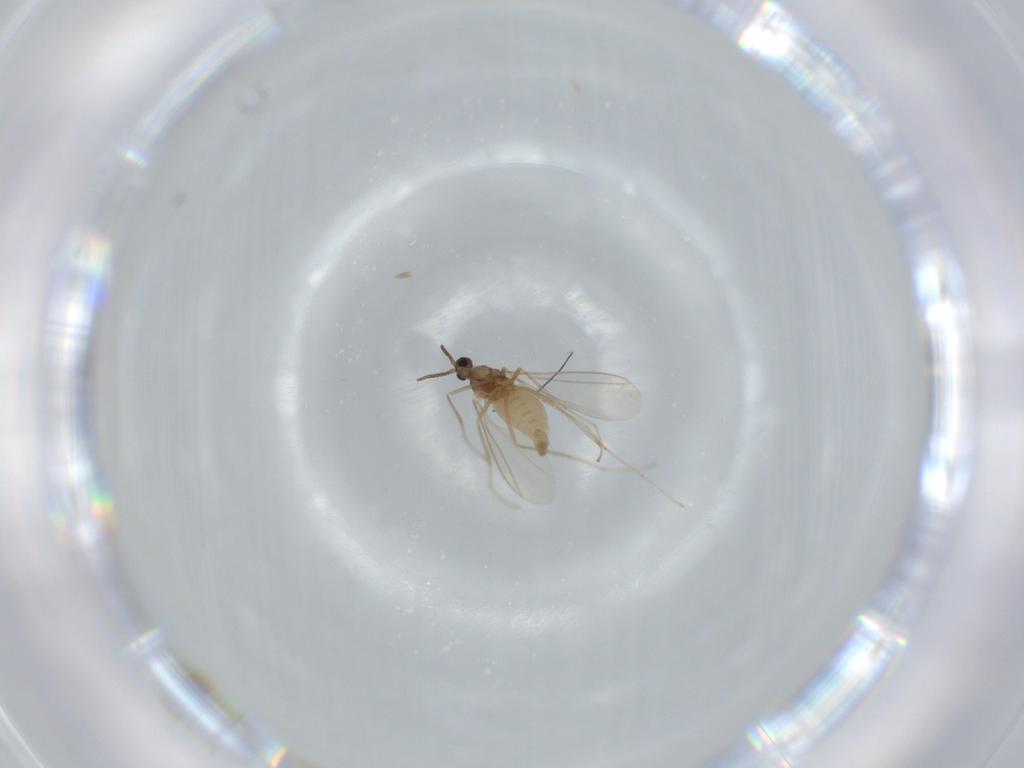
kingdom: Animalia
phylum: Arthropoda
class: Insecta
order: Diptera
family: Cecidomyiidae
